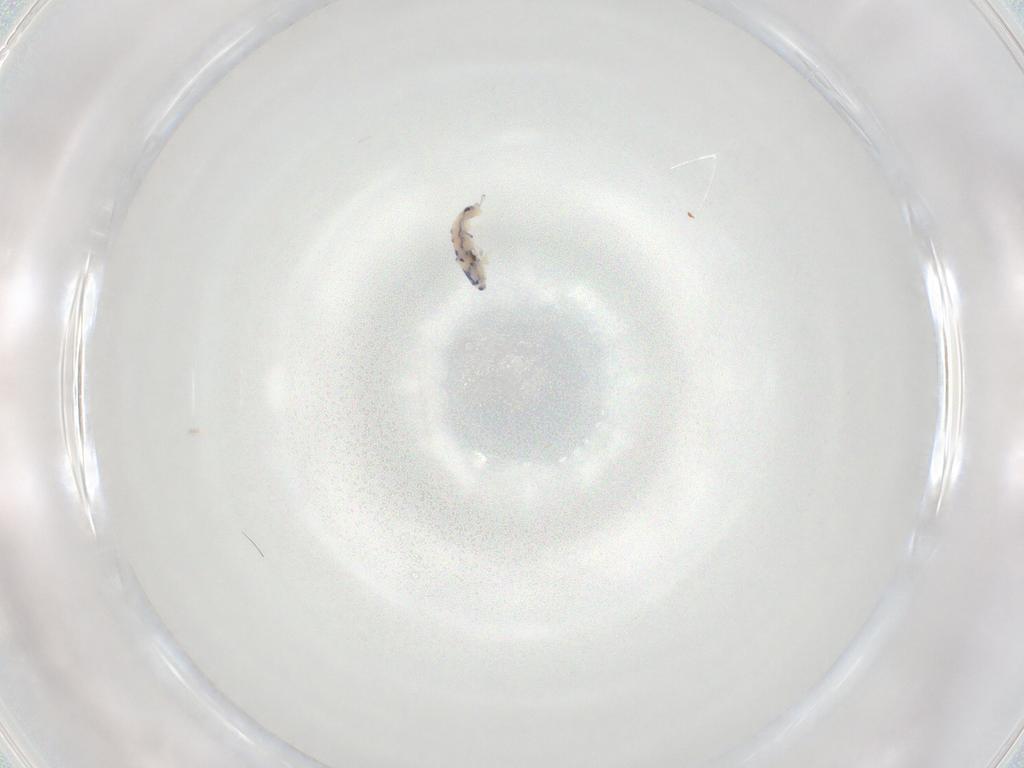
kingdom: Animalia
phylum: Arthropoda
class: Collembola
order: Entomobryomorpha
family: Entomobryidae
